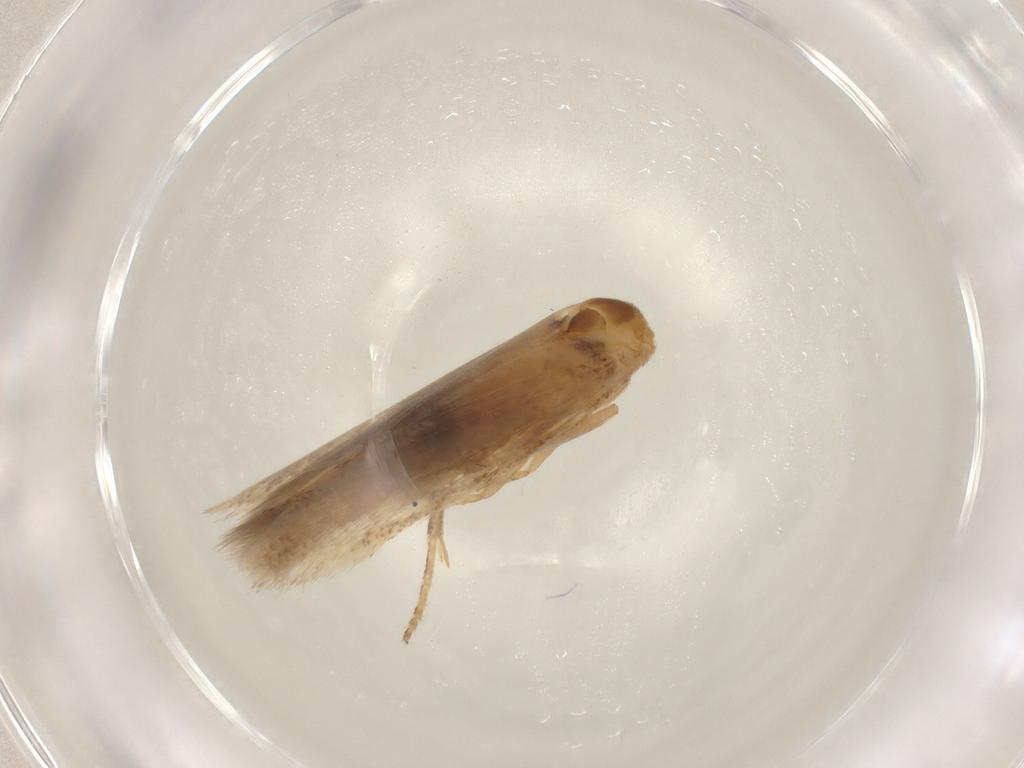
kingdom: Animalia
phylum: Arthropoda
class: Insecta
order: Lepidoptera
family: Gelechiidae
